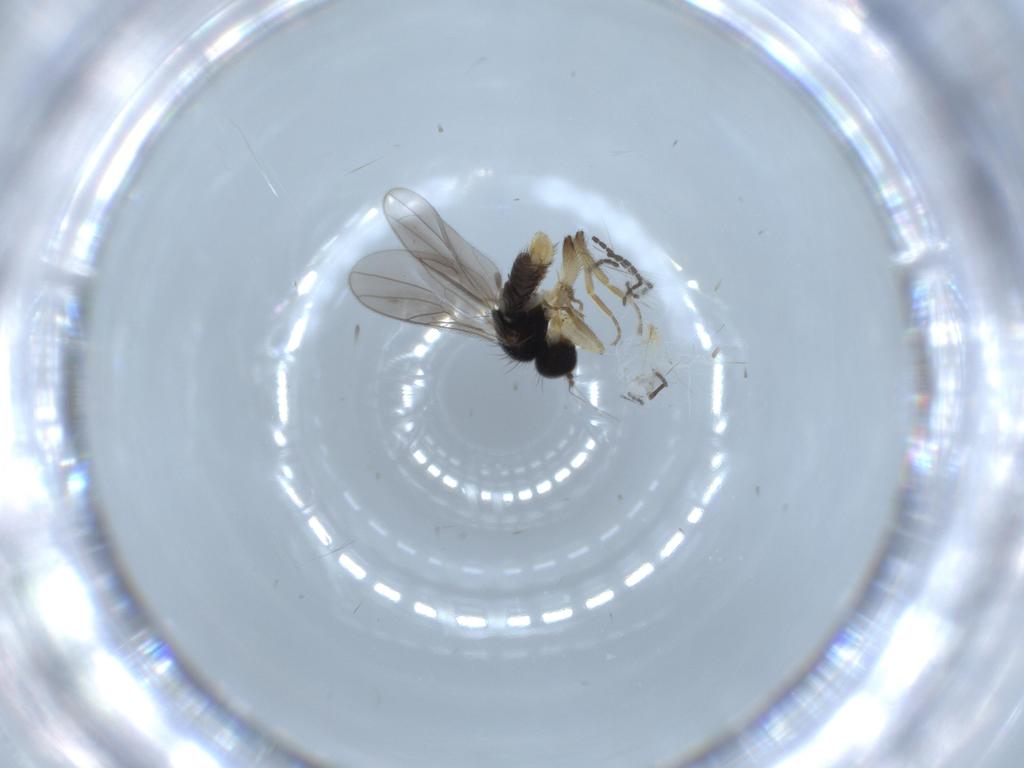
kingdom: Animalia
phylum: Arthropoda
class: Insecta
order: Diptera
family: Hybotidae
